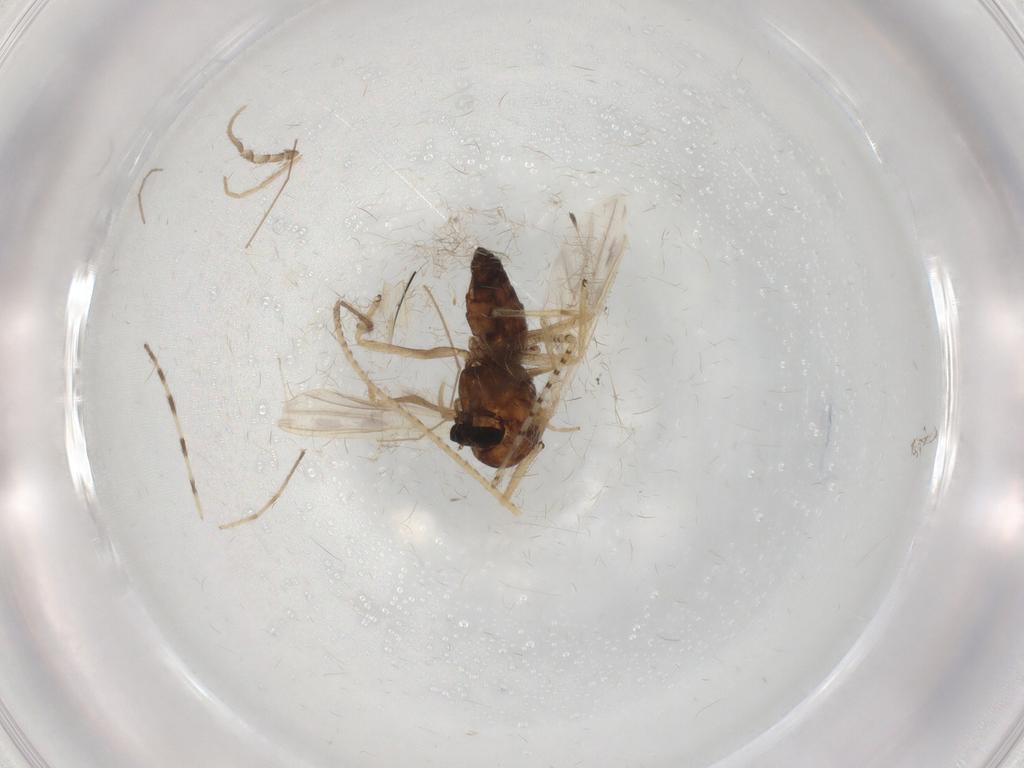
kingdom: Animalia
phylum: Arthropoda
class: Insecta
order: Diptera
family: Chironomidae
